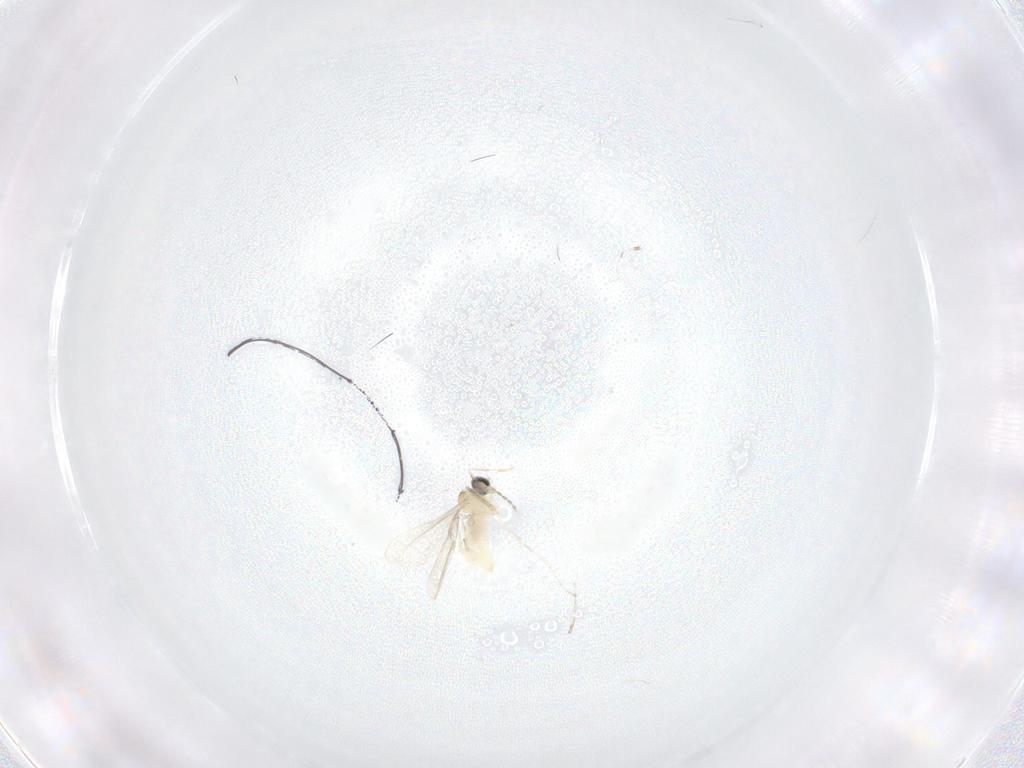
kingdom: Animalia
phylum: Arthropoda
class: Insecta
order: Diptera
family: Cecidomyiidae
